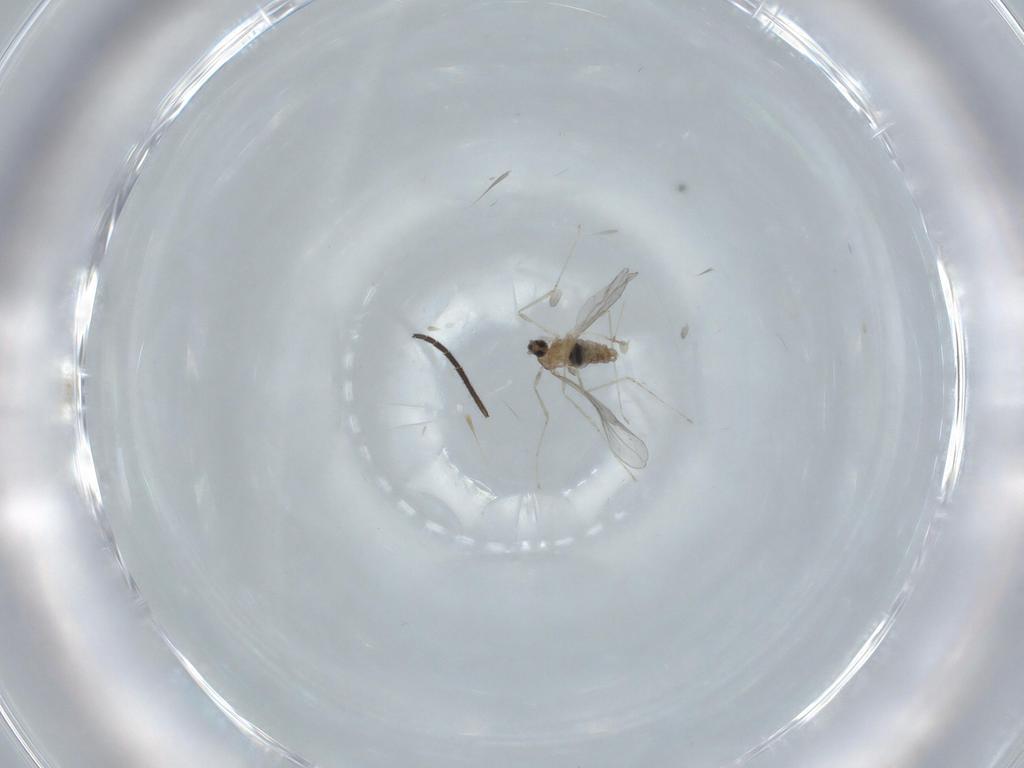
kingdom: Animalia
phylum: Arthropoda
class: Insecta
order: Diptera
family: Cecidomyiidae
